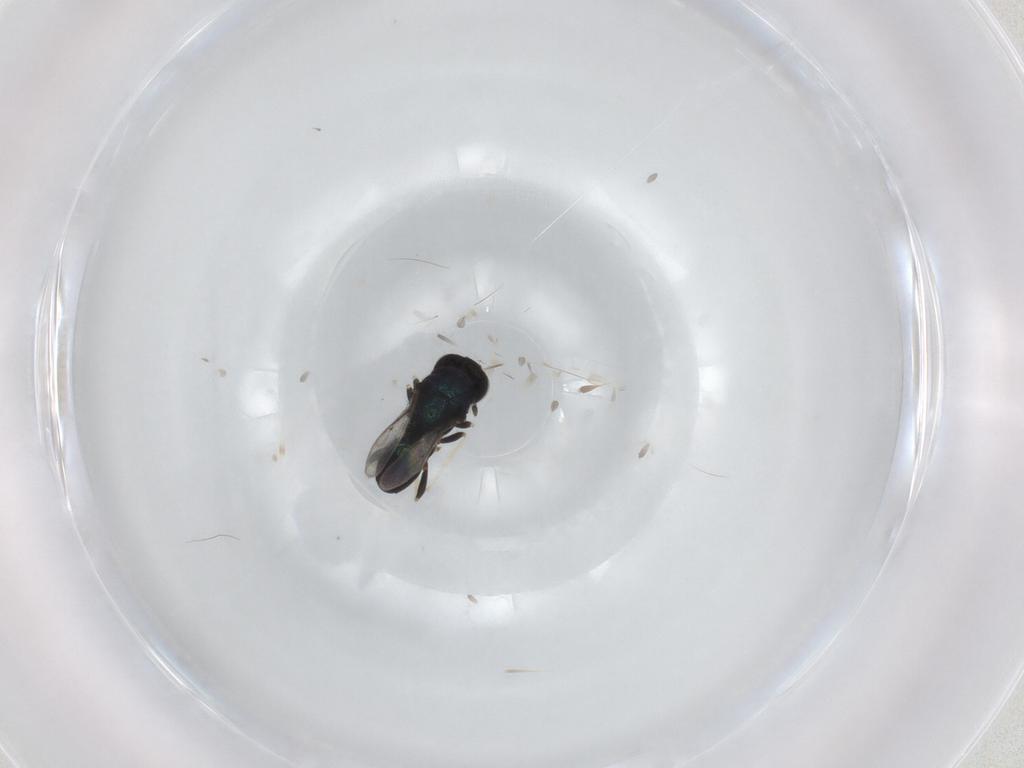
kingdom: Animalia
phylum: Arthropoda
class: Insecta
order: Hymenoptera
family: Herbertiidae
